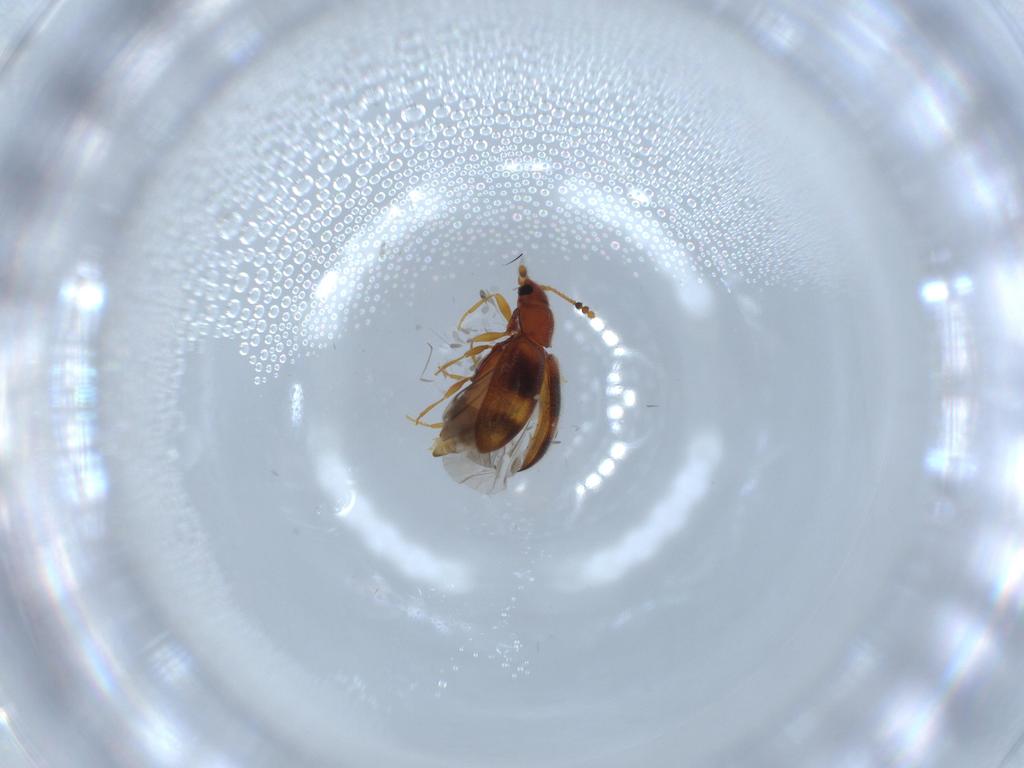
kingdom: Animalia
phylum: Arthropoda
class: Insecta
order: Coleoptera
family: Erotylidae
